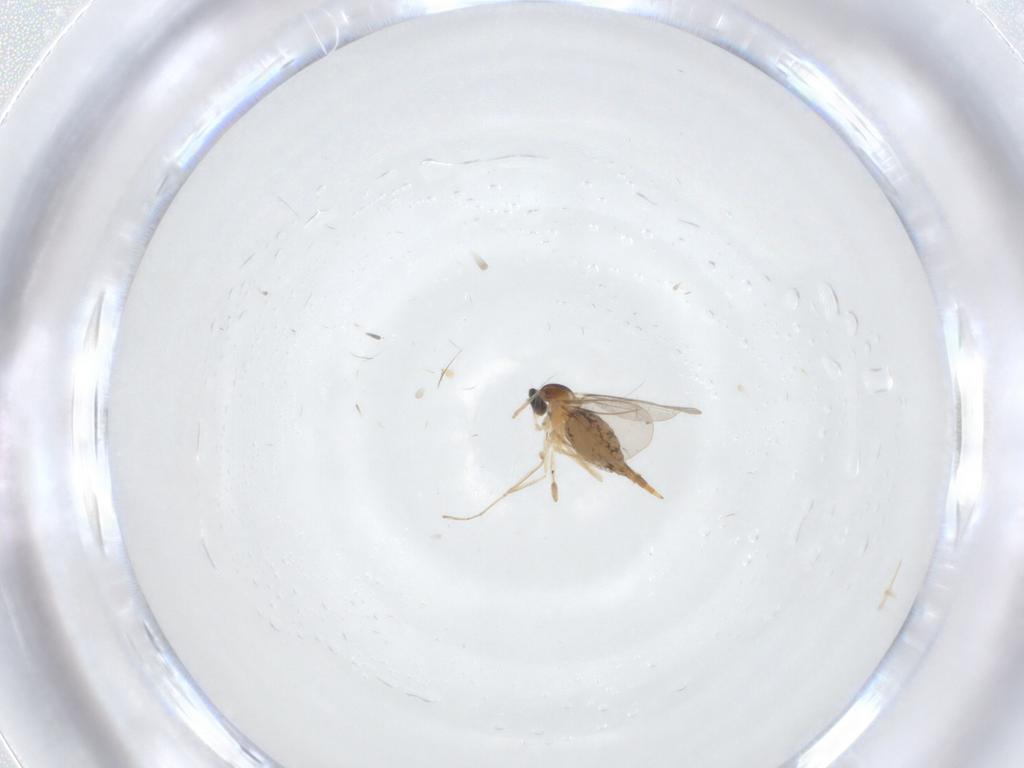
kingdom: Animalia
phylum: Arthropoda
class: Insecta
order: Diptera
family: Cecidomyiidae
